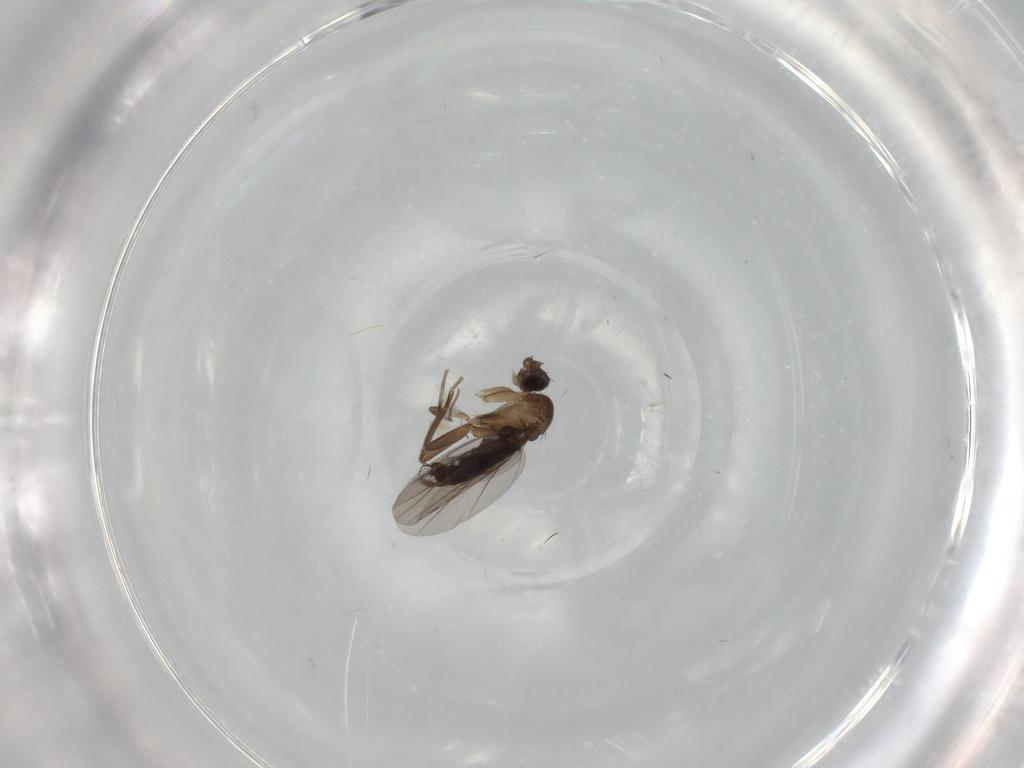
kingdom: Animalia
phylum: Arthropoda
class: Insecta
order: Diptera
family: Phoridae
